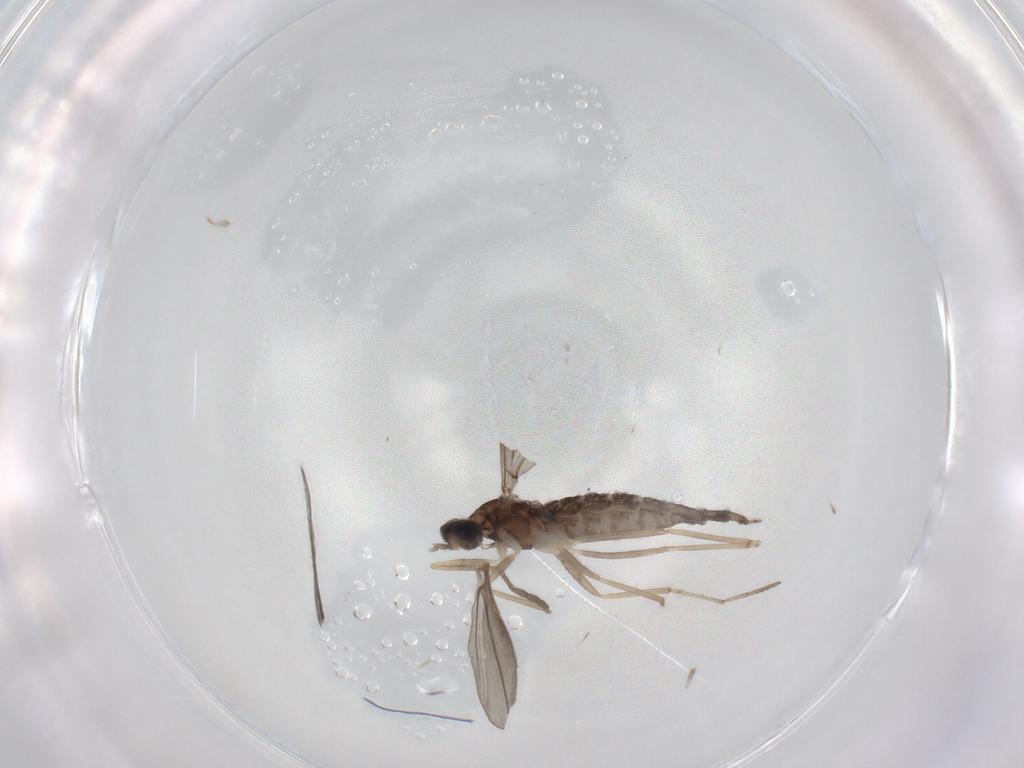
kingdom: Animalia
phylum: Arthropoda
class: Insecta
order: Diptera
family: Cecidomyiidae
